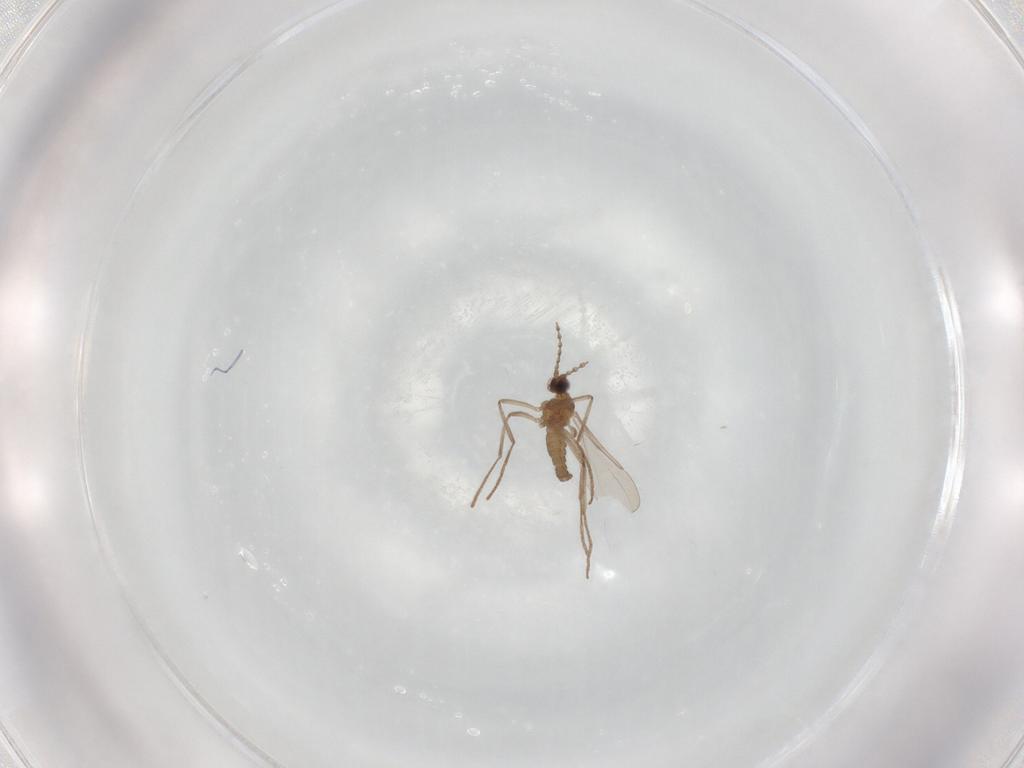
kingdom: Animalia
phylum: Arthropoda
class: Insecta
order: Diptera
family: Cecidomyiidae
